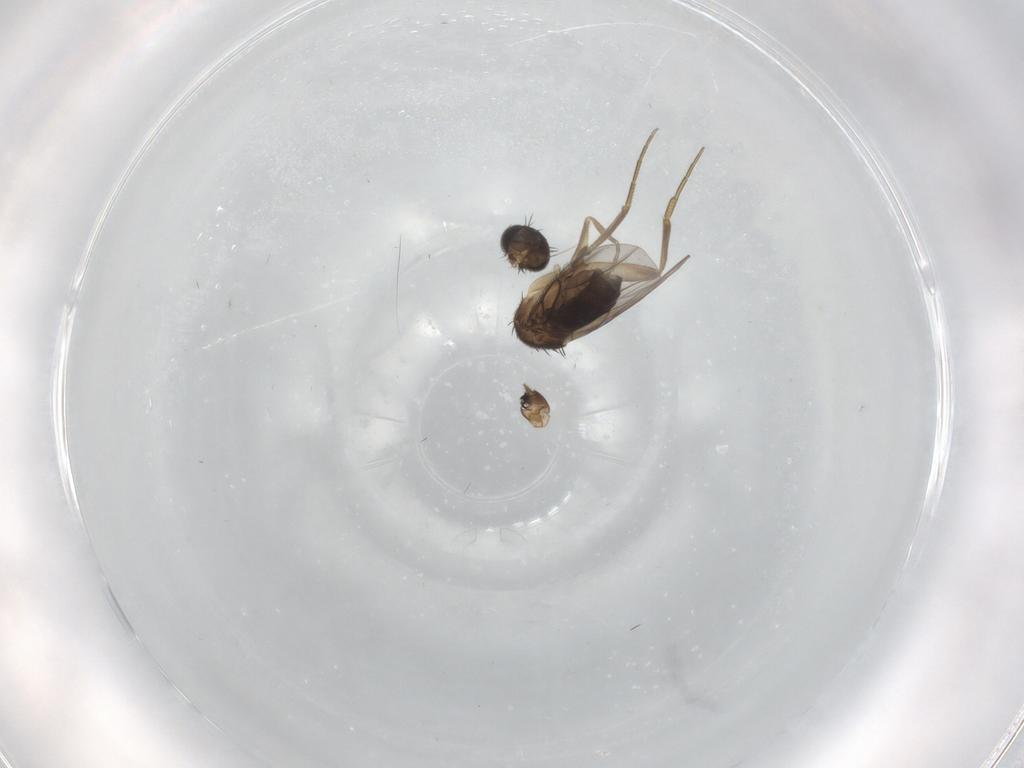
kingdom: Animalia
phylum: Arthropoda
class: Insecta
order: Diptera
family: Phoridae
